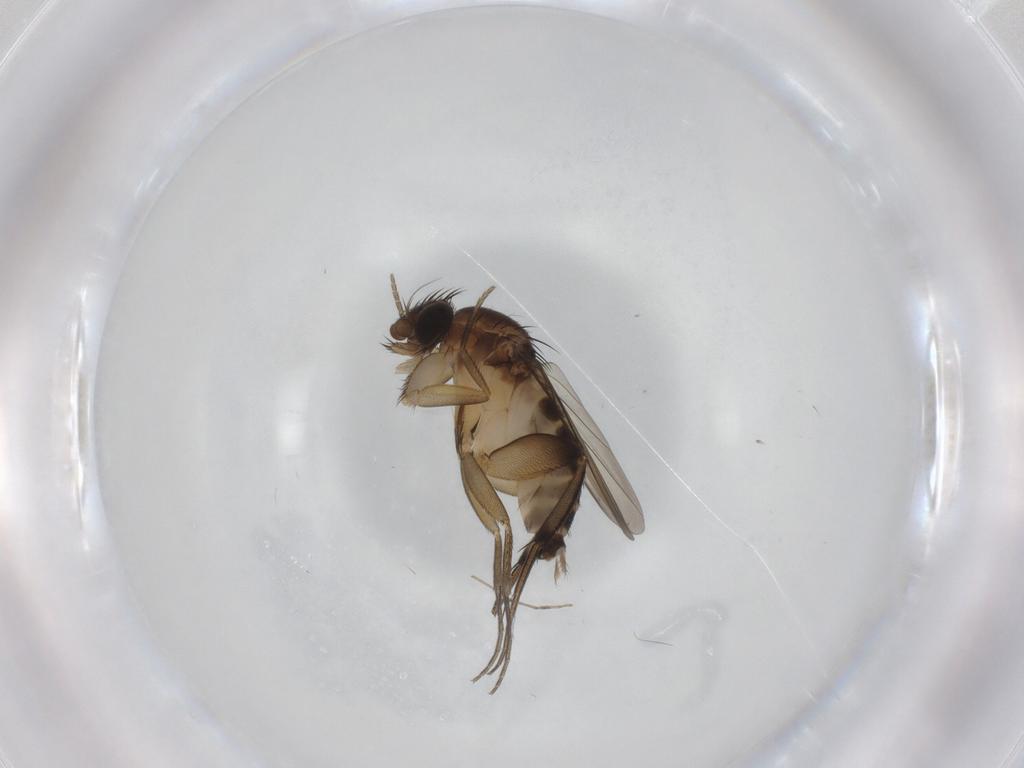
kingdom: Animalia
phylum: Arthropoda
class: Insecta
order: Diptera
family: Phoridae
